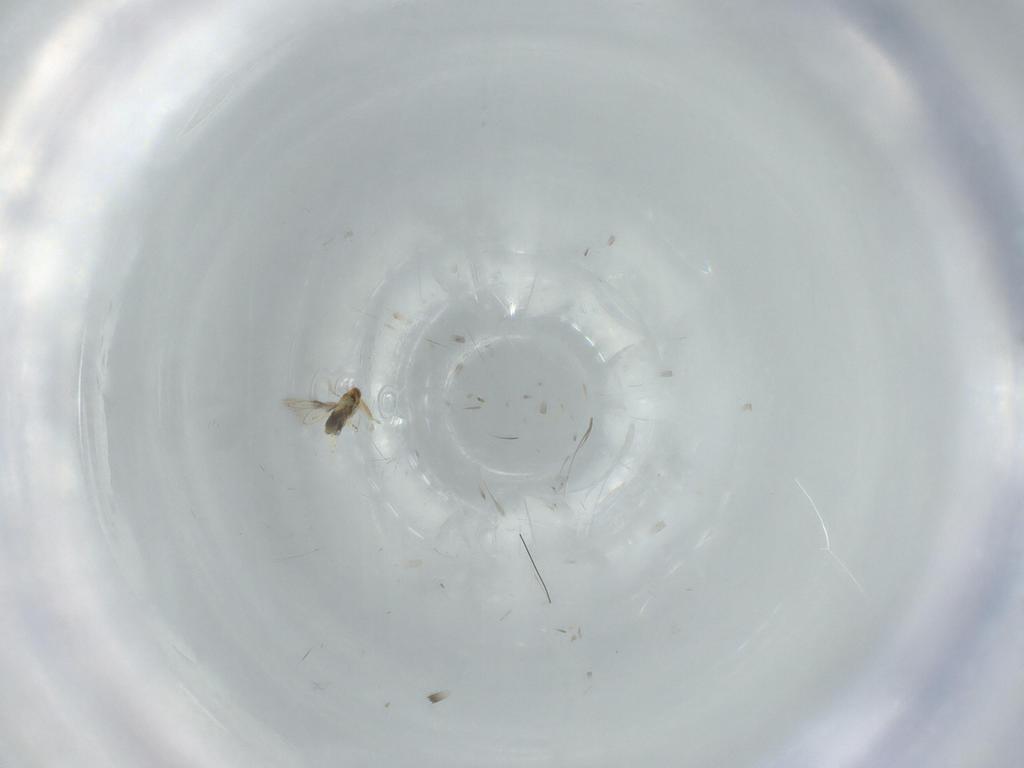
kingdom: Animalia
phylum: Arthropoda
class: Insecta
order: Hymenoptera
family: Aphelinidae
